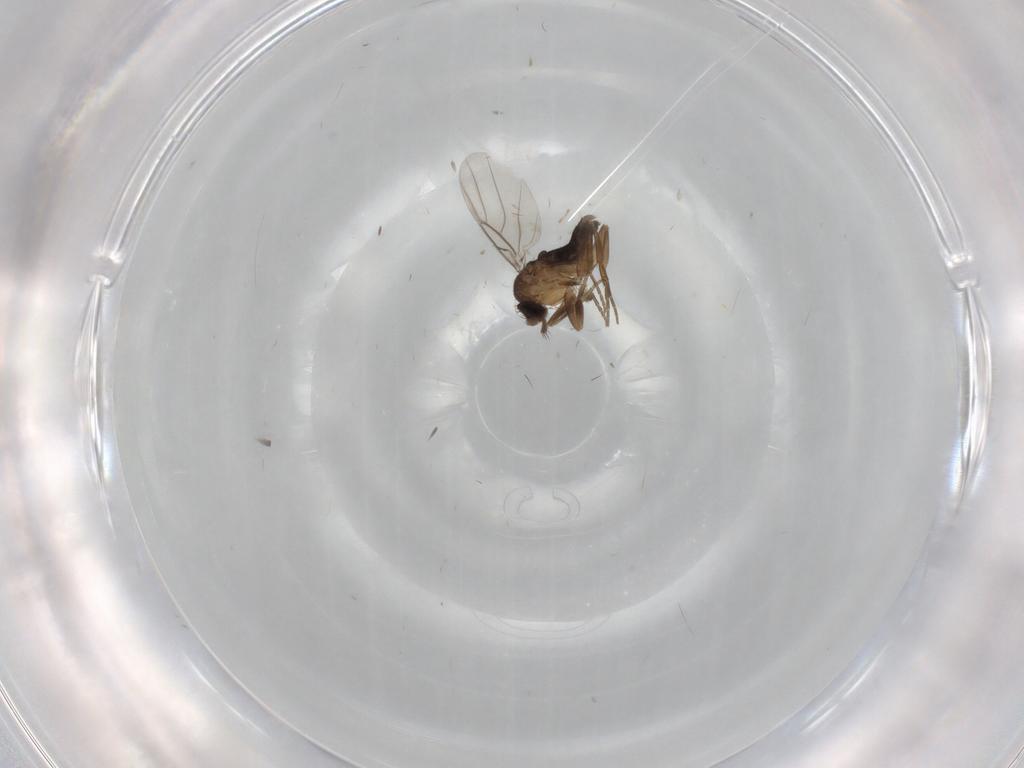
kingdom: Animalia
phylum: Arthropoda
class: Insecta
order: Diptera
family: Phoridae
